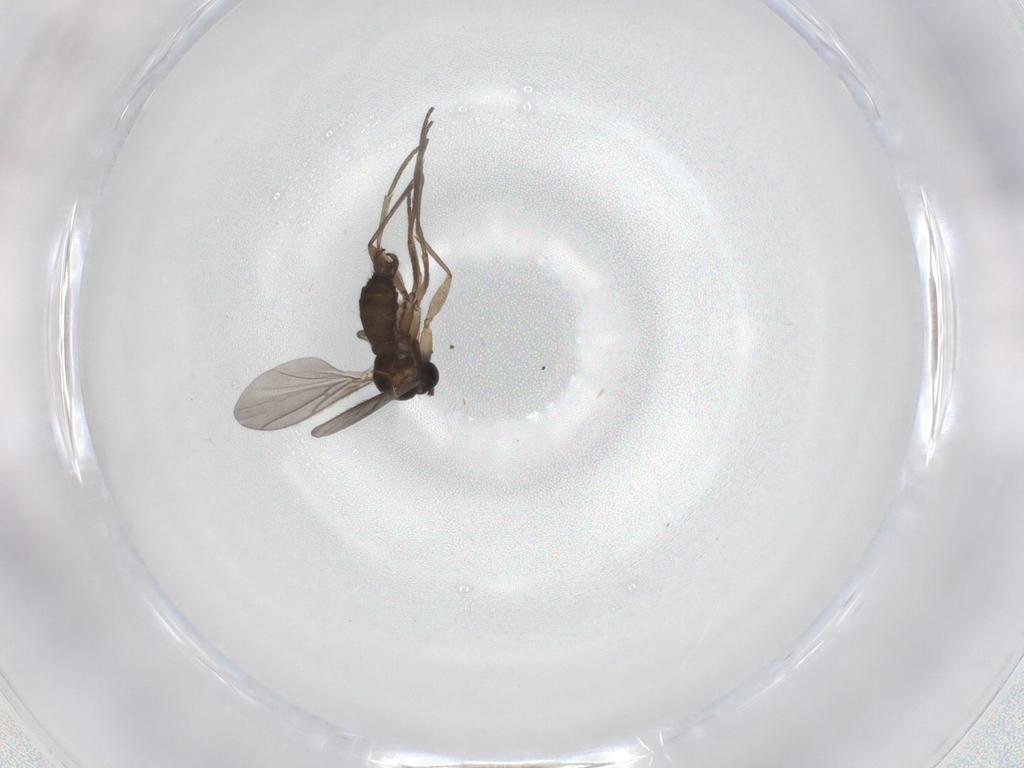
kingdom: Animalia
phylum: Arthropoda
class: Insecta
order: Diptera
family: Sciaridae
